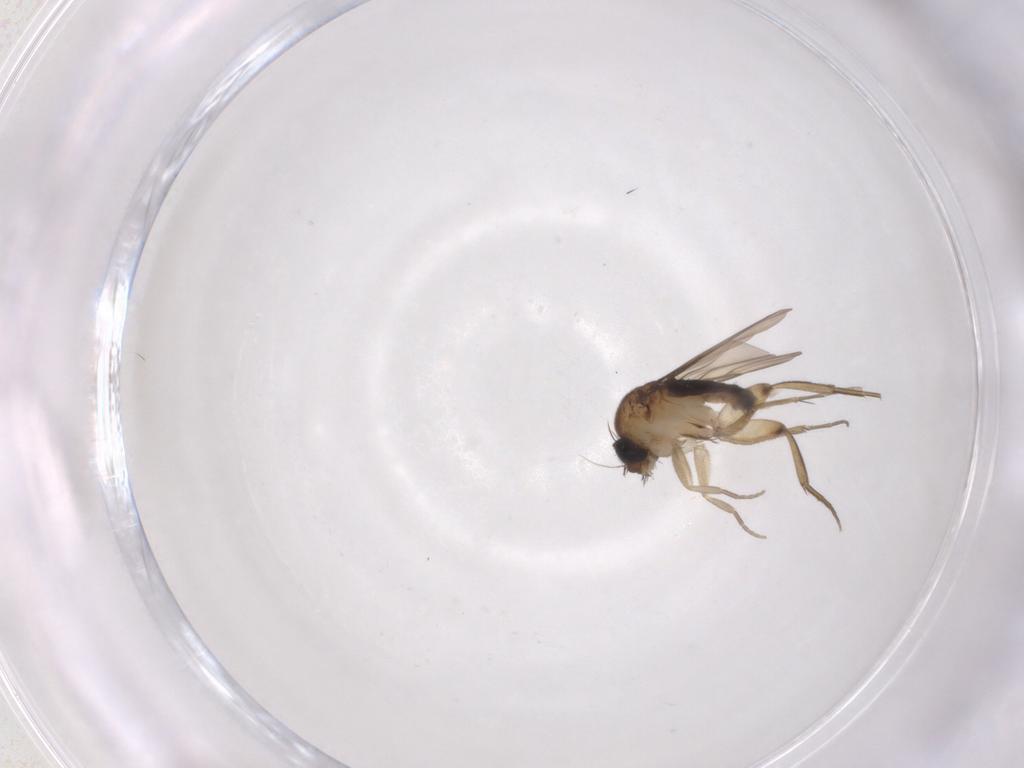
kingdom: Animalia
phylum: Arthropoda
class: Insecta
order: Diptera
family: Phoridae
